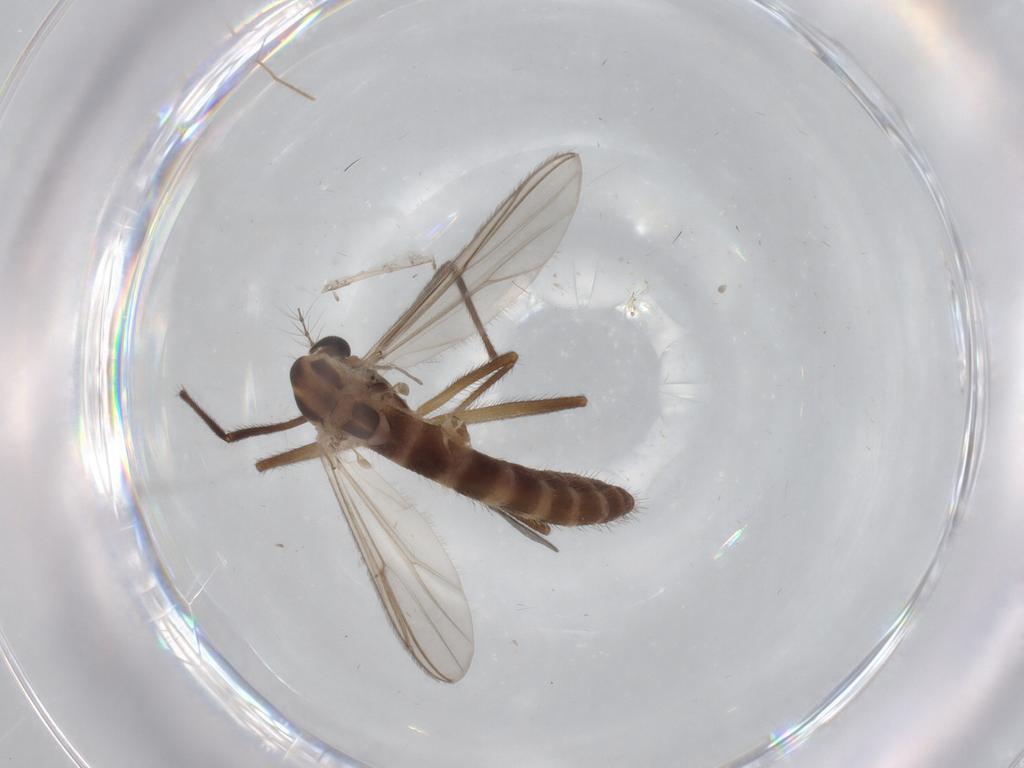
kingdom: Animalia
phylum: Arthropoda
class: Insecta
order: Diptera
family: Chironomidae
